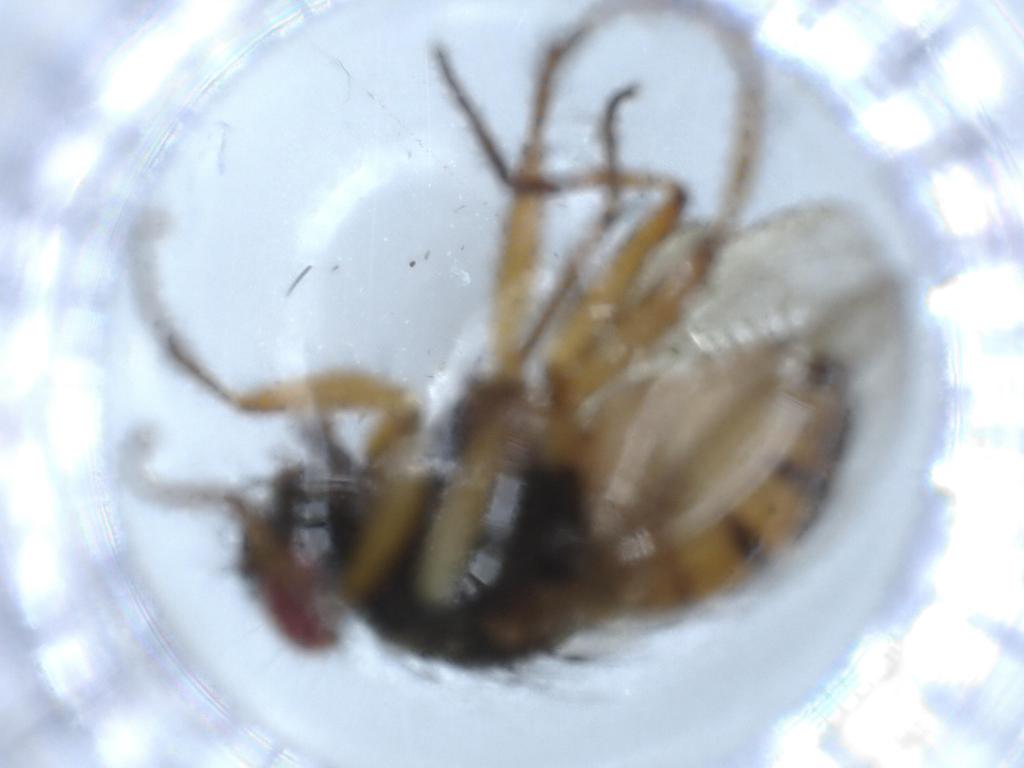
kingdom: Animalia
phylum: Arthropoda
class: Insecta
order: Diptera
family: Muscidae
